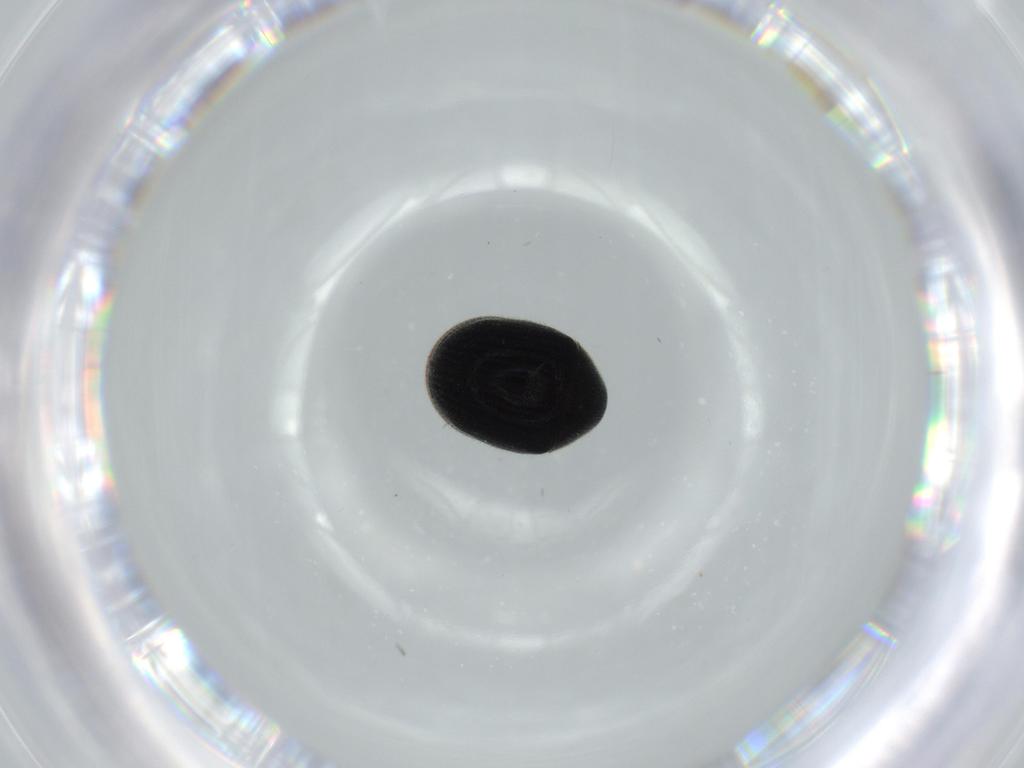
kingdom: Animalia
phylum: Arthropoda
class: Insecta
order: Coleoptera
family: Ptinidae
